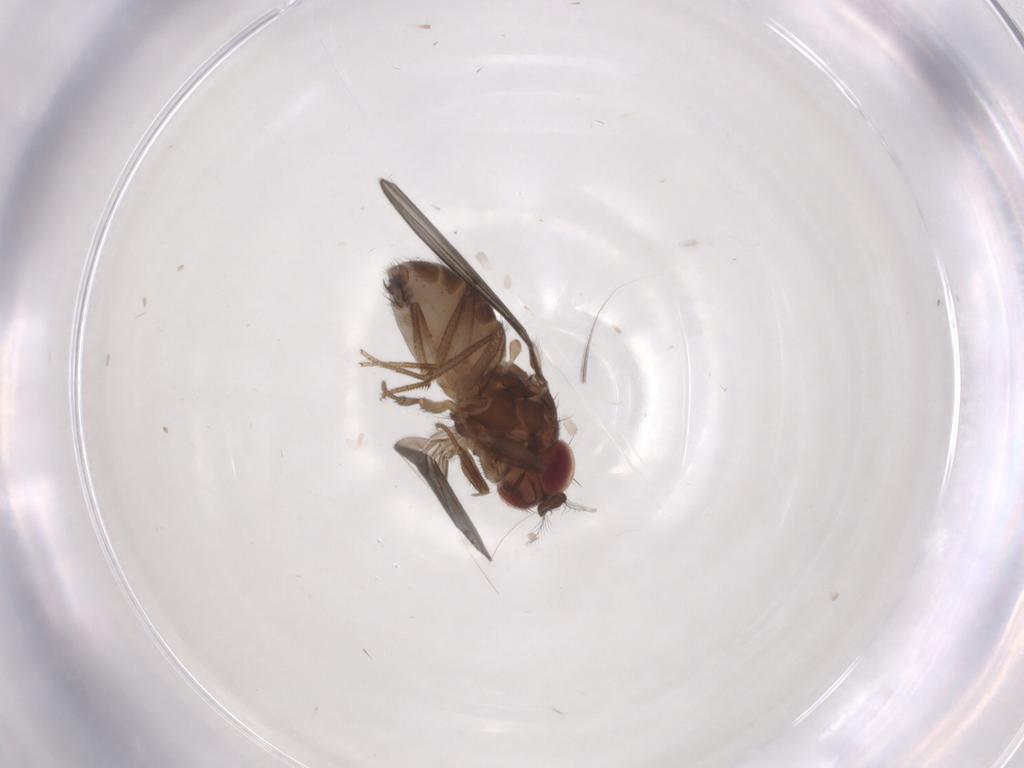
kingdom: Animalia
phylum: Arthropoda
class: Insecta
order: Diptera
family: Drosophilidae
